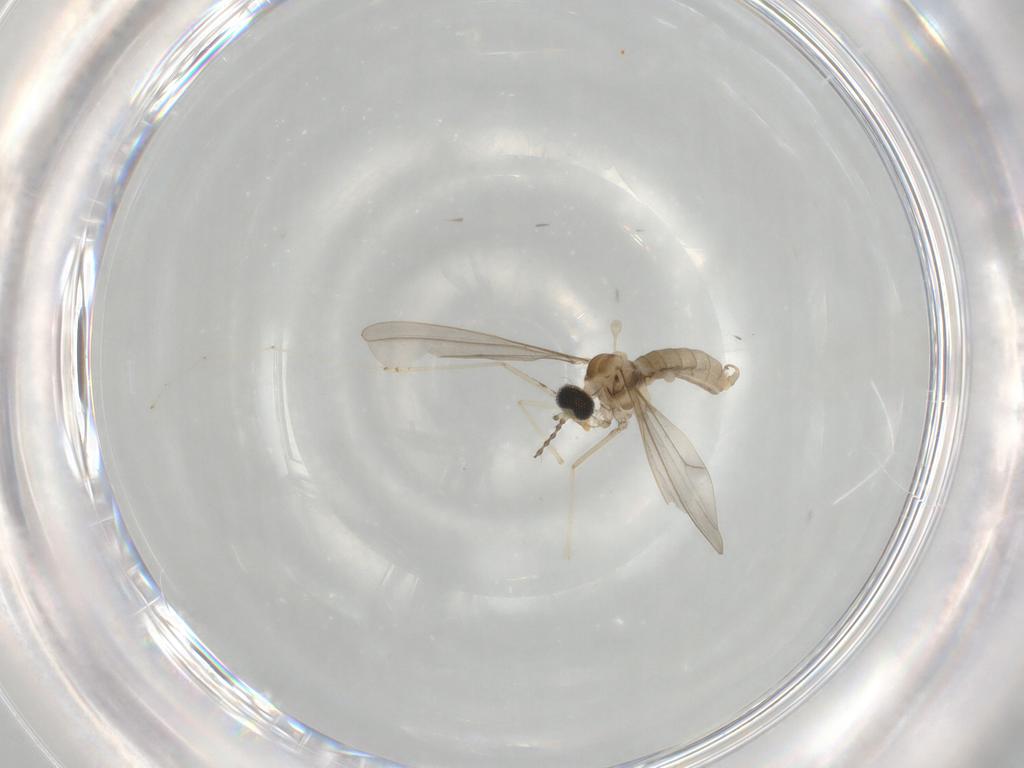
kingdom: Animalia
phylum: Arthropoda
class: Insecta
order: Diptera
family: Cecidomyiidae
